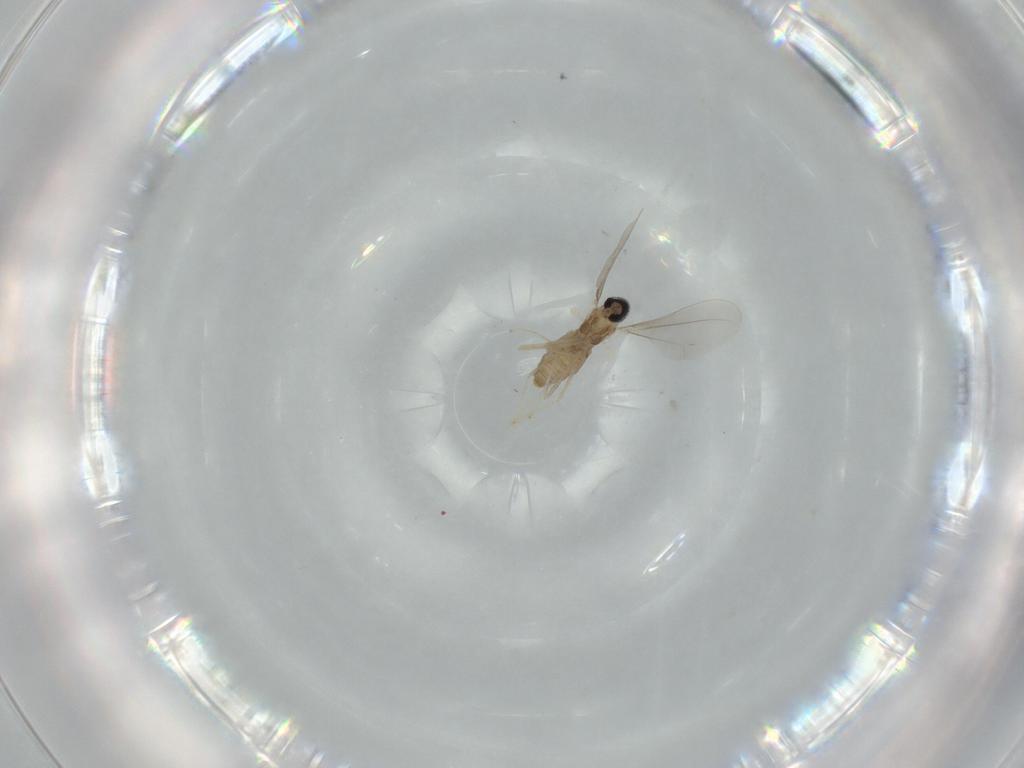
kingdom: Animalia
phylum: Arthropoda
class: Insecta
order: Diptera
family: Cecidomyiidae
